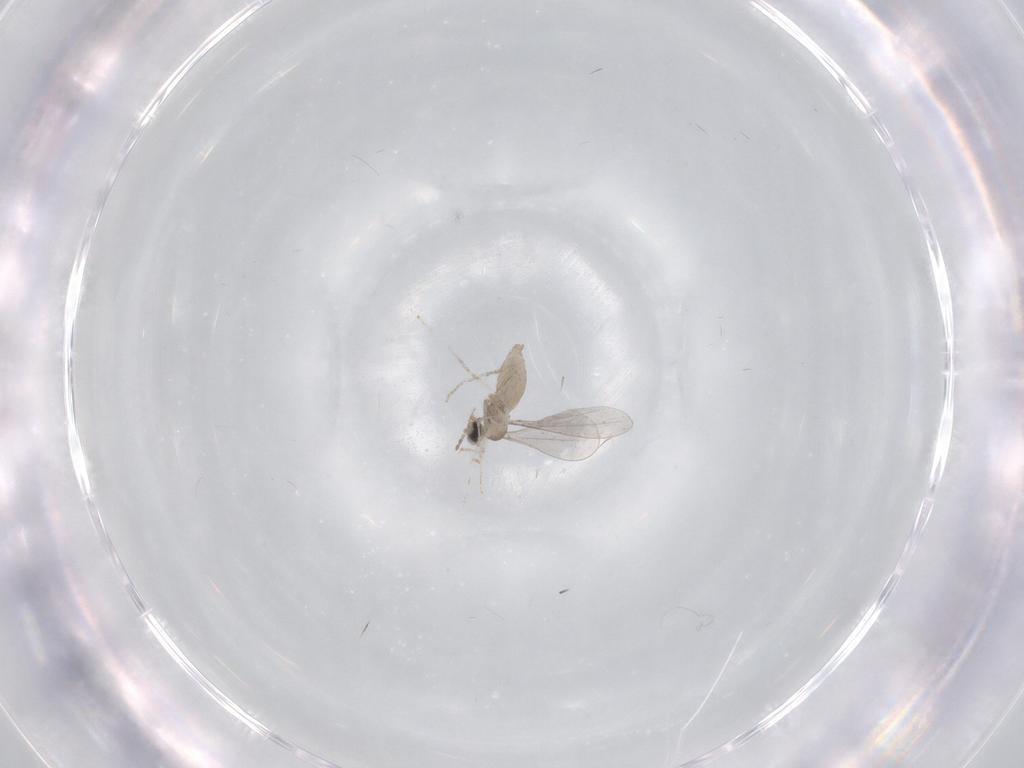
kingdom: Animalia
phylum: Arthropoda
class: Insecta
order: Diptera
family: Cecidomyiidae
